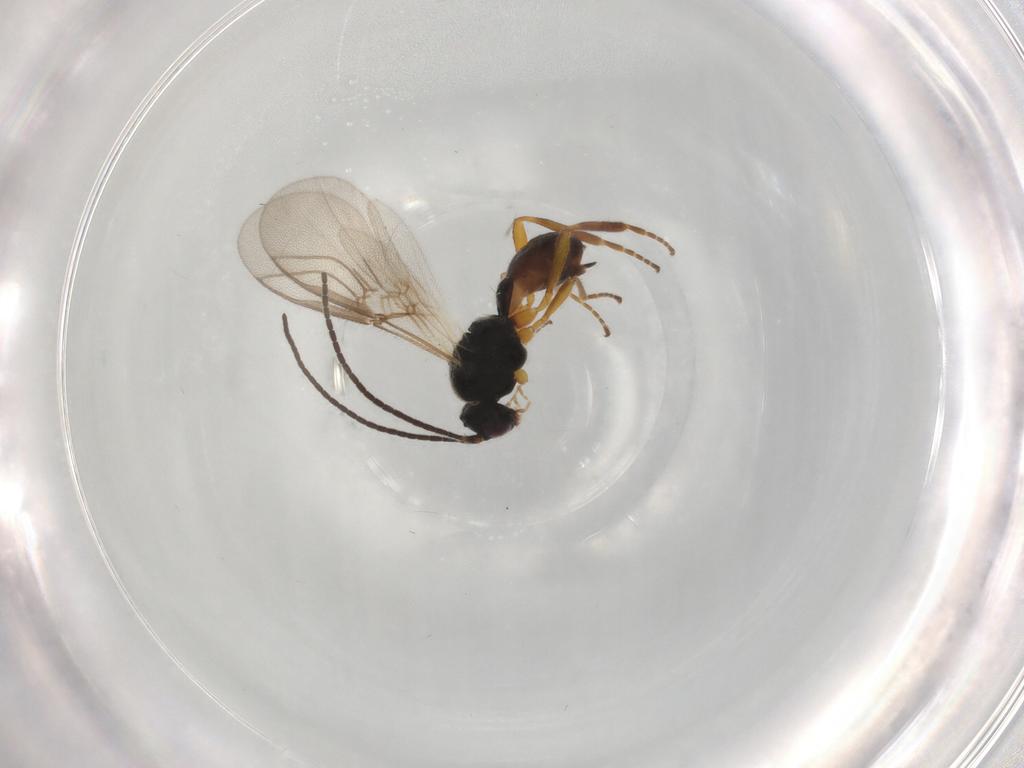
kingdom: Animalia
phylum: Arthropoda
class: Insecta
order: Hymenoptera
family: Braconidae
